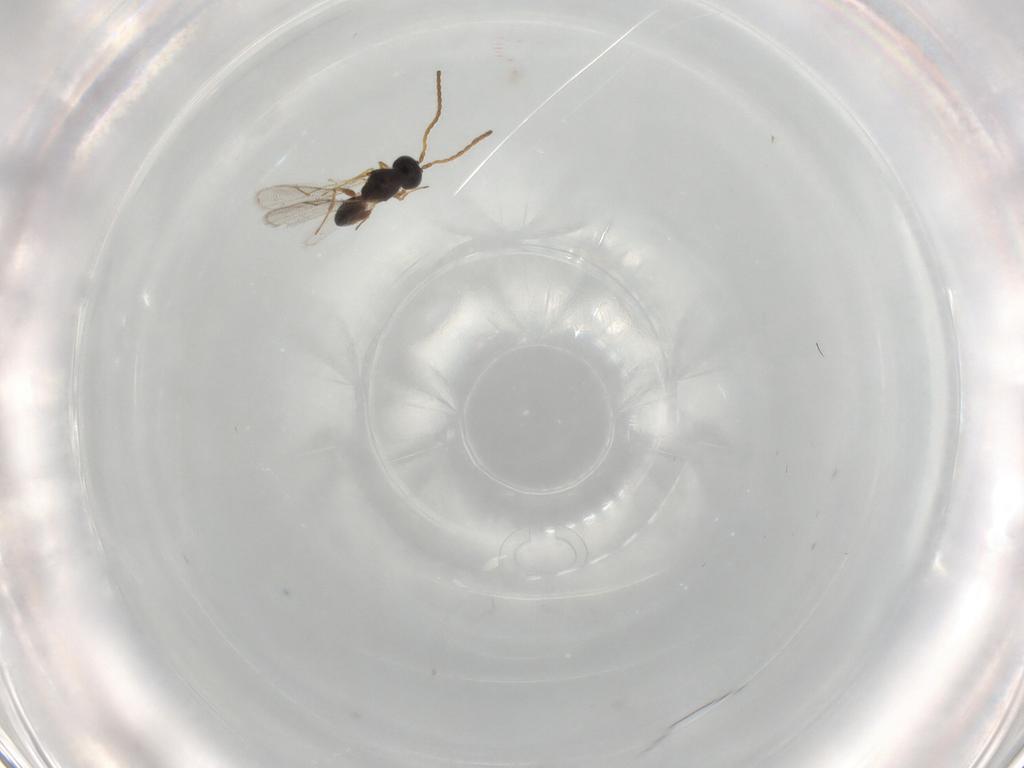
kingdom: Animalia
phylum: Arthropoda
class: Insecta
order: Hymenoptera
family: Figitidae
